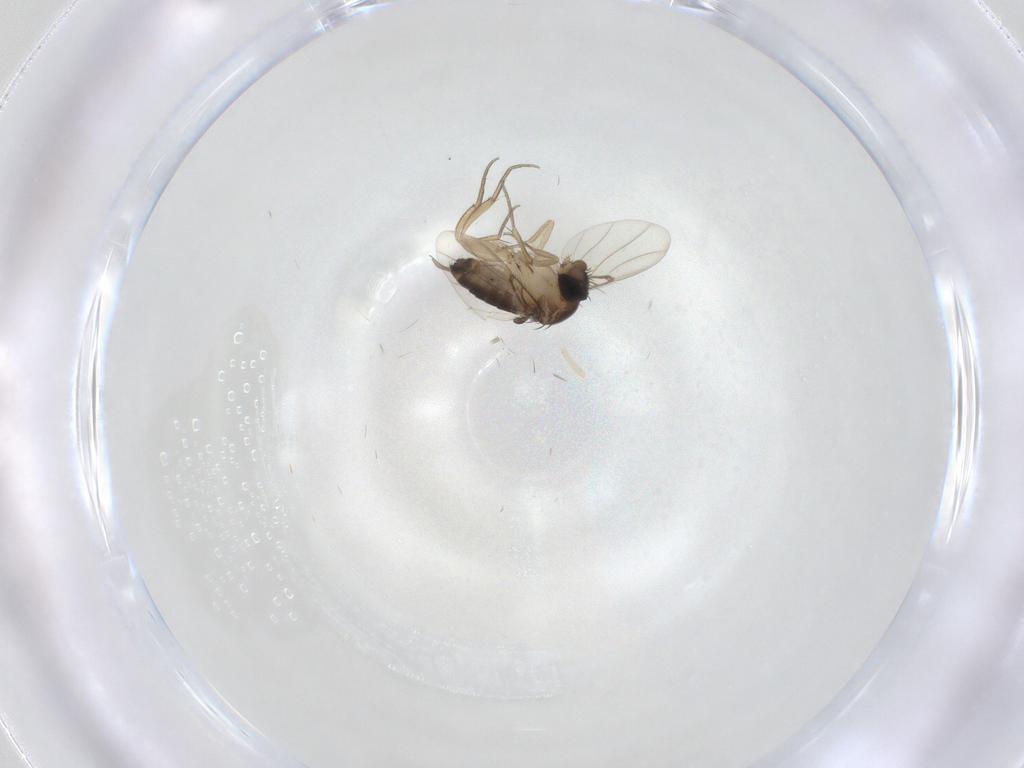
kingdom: Animalia
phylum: Arthropoda
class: Insecta
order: Diptera
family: Phoridae
